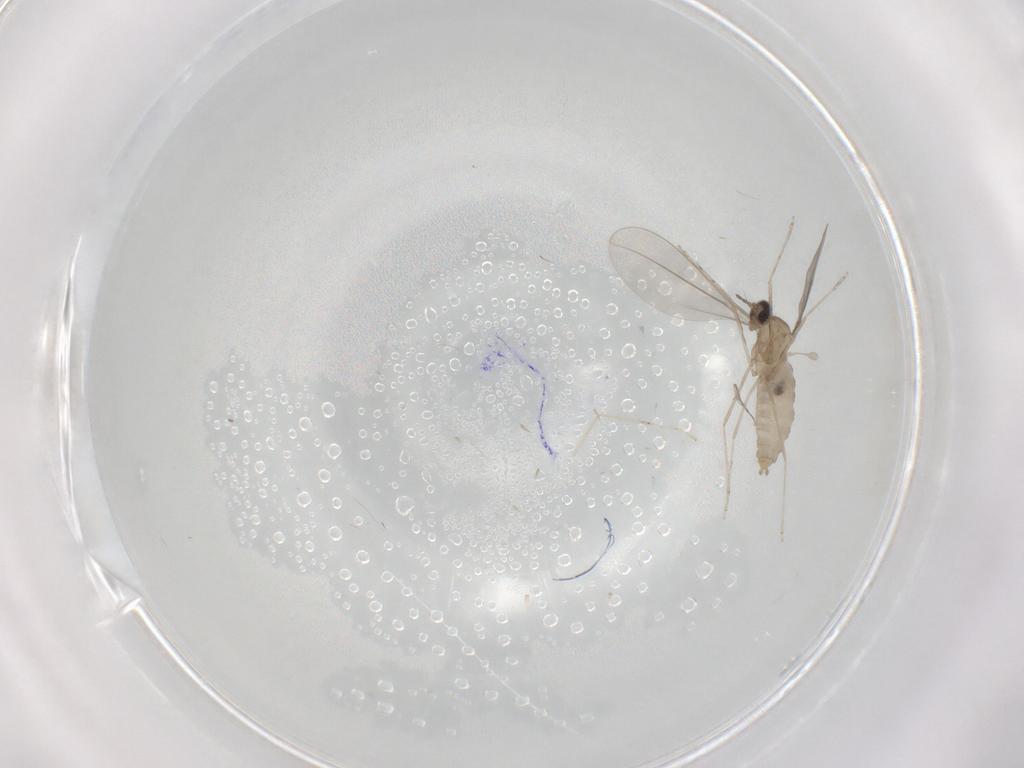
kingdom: Animalia
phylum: Arthropoda
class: Insecta
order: Diptera
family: Cecidomyiidae
